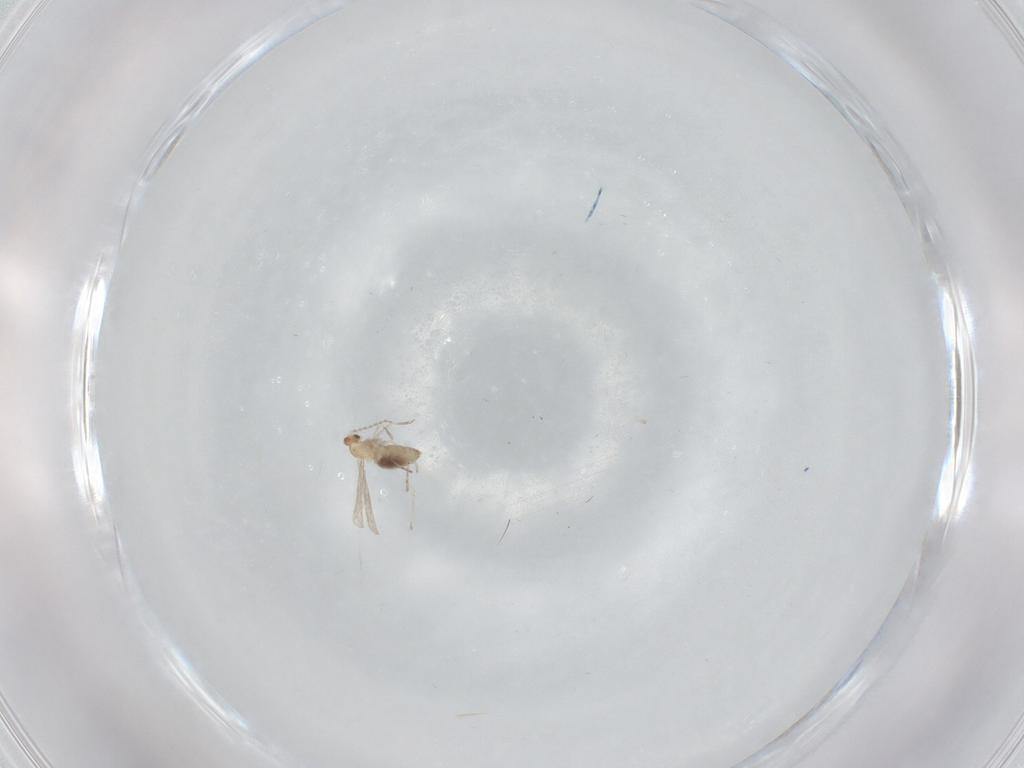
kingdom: Animalia
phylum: Arthropoda
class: Insecta
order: Diptera
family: Cecidomyiidae
